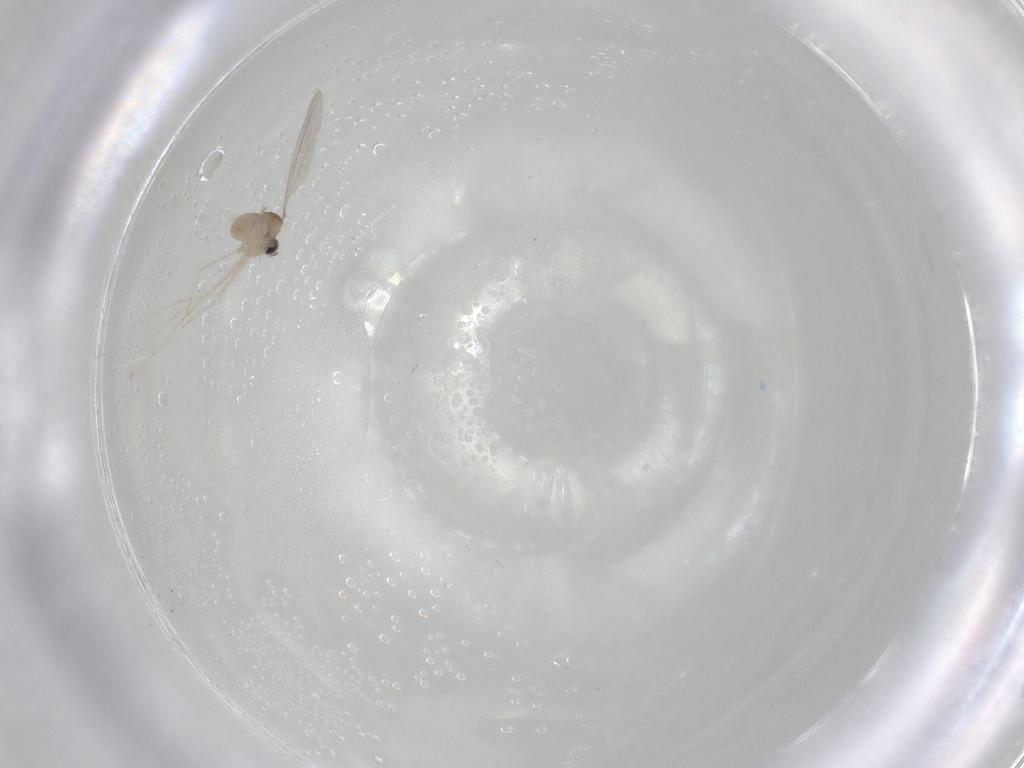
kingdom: Animalia
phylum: Arthropoda
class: Insecta
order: Diptera
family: Cecidomyiidae
